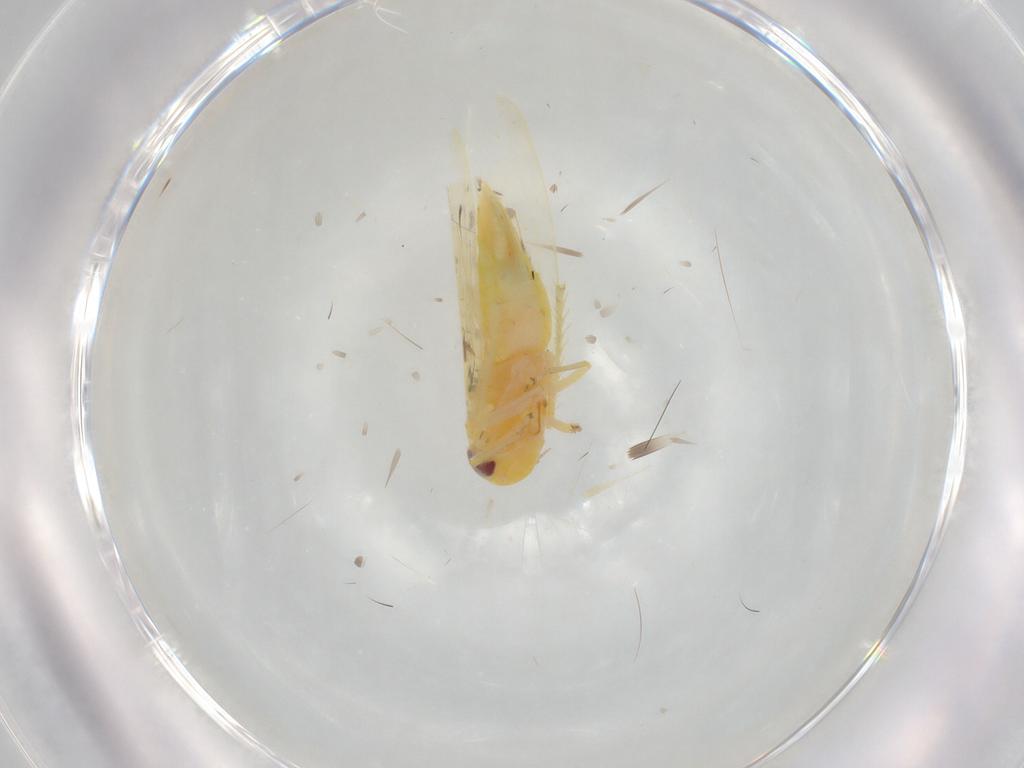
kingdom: Animalia
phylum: Arthropoda
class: Insecta
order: Hemiptera
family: Cicadellidae
